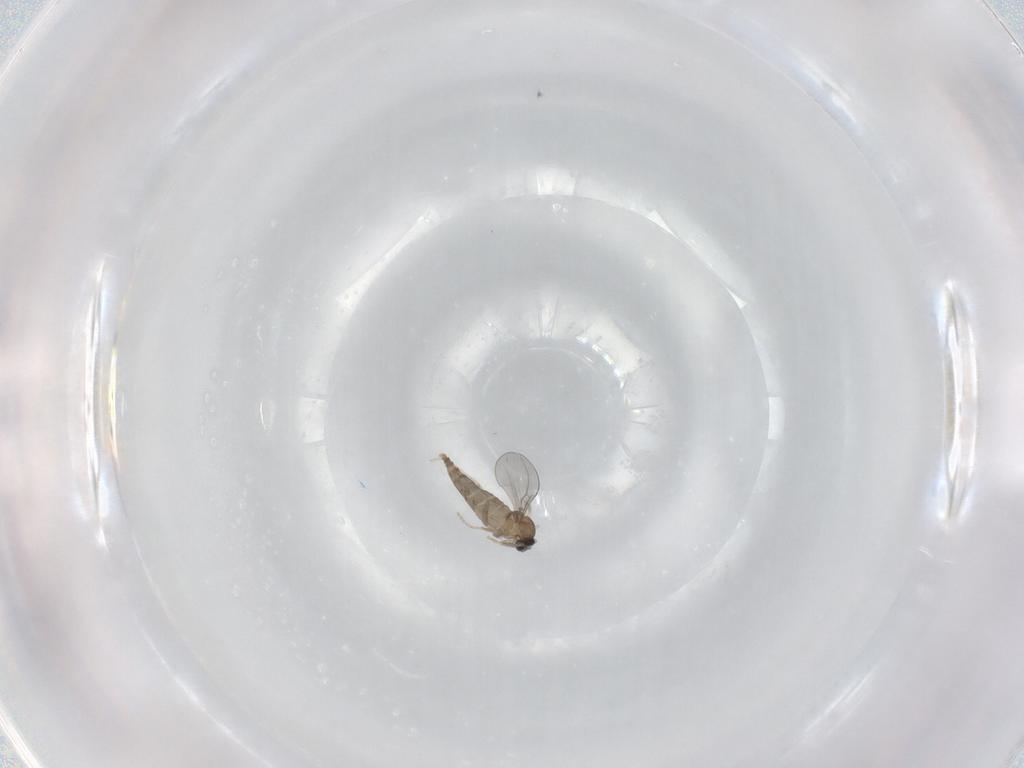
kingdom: Animalia
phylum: Arthropoda
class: Insecta
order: Diptera
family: Cecidomyiidae
